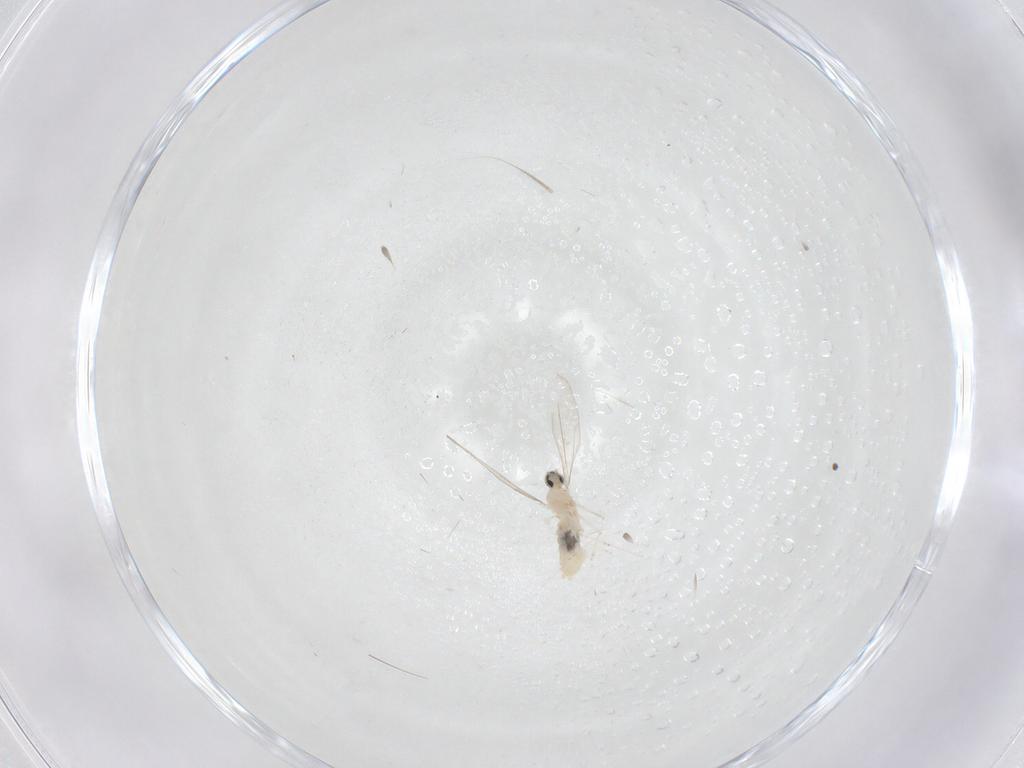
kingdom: Animalia
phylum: Arthropoda
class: Insecta
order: Diptera
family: Cecidomyiidae
